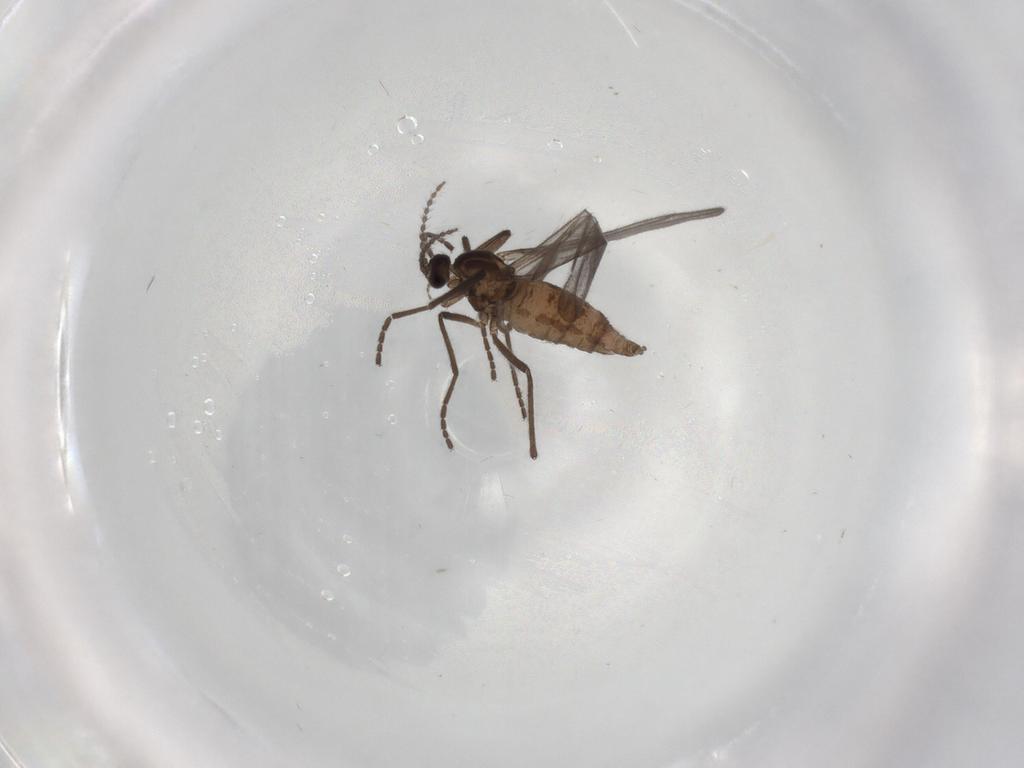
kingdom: Animalia
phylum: Arthropoda
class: Insecta
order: Diptera
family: Cecidomyiidae
